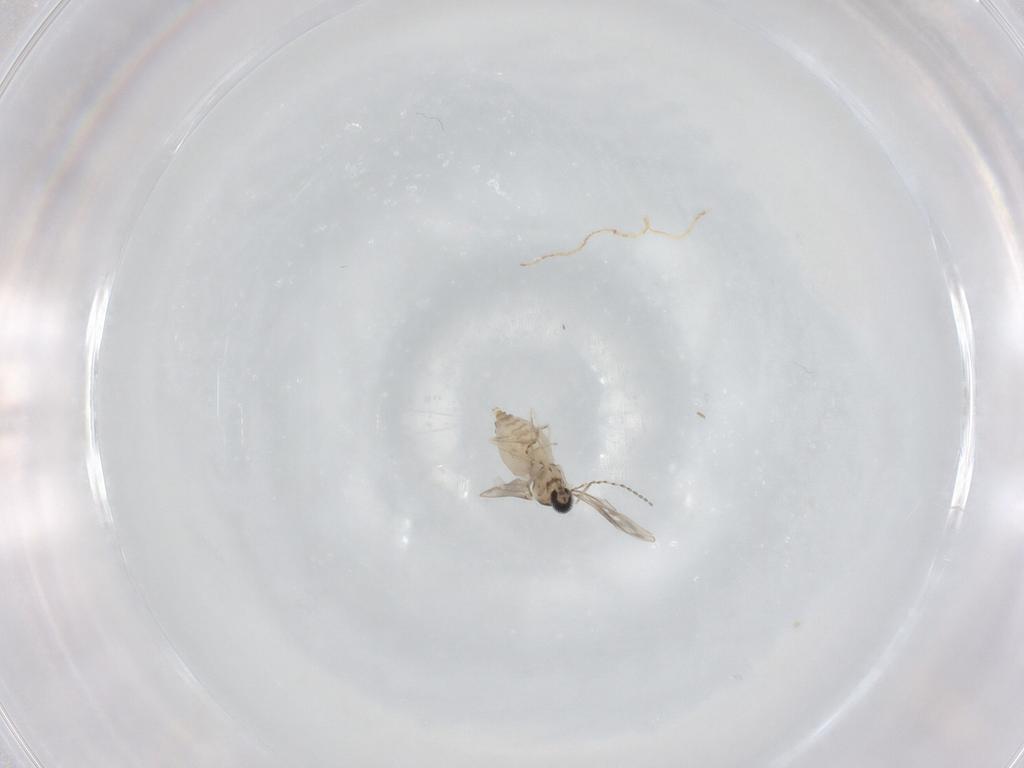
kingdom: Animalia
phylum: Arthropoda
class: Insecta
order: Diptera
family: Cecidomyiidae
